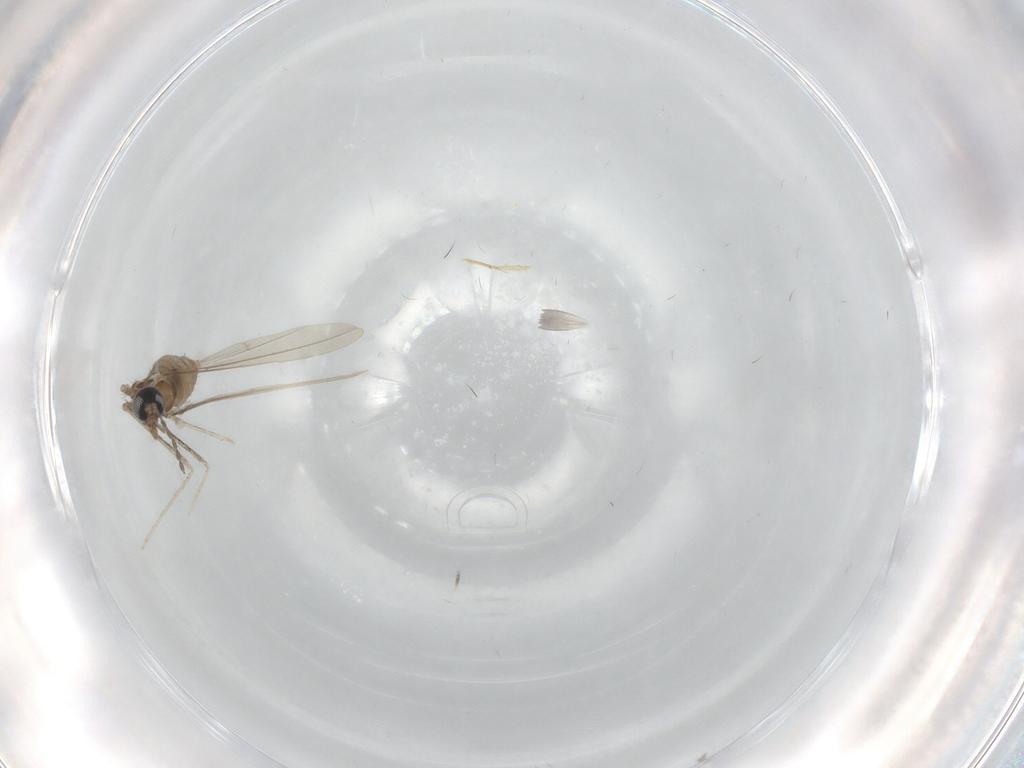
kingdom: Animalia
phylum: Arthropoda
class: Insecta
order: Diptera
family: Dolichopodidae
